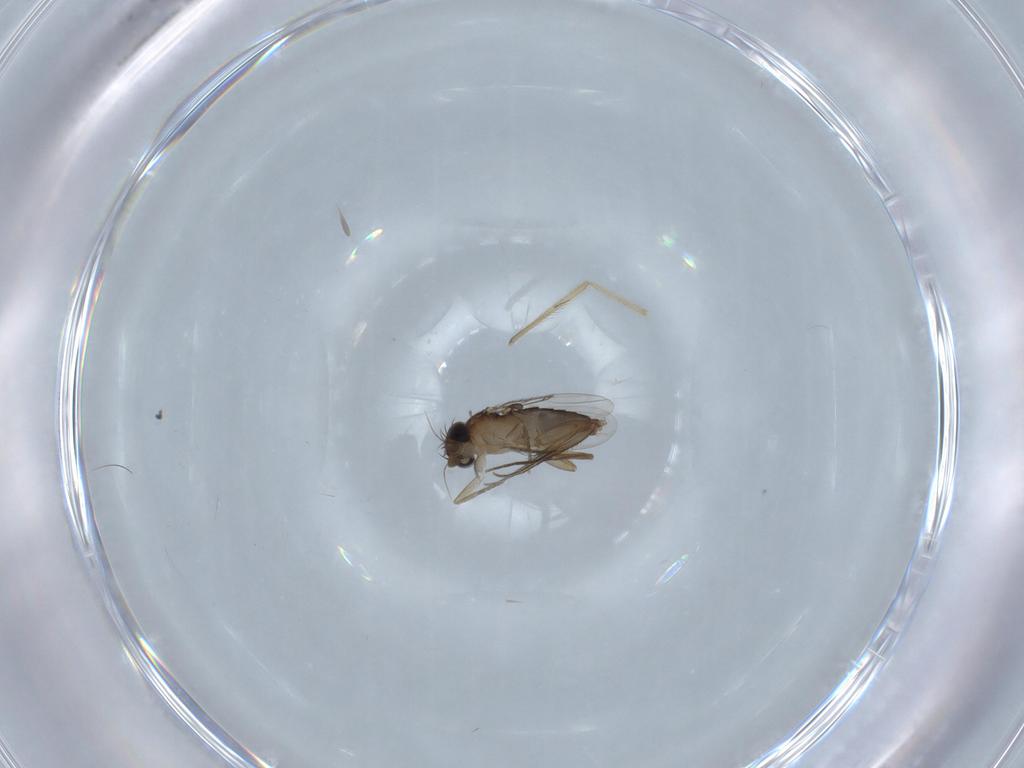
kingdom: Animalia
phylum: Arthropoda
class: Insecta
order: Diptera
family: Phoridae
